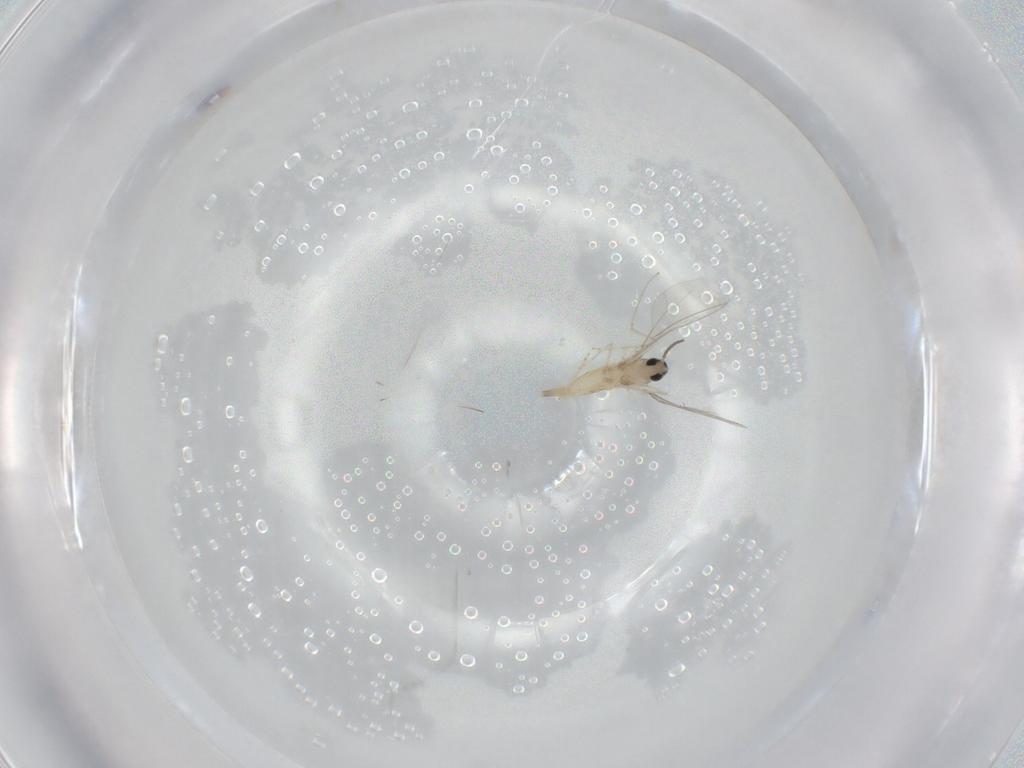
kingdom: Animalia
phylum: Arthropoda
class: Insecta
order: Diptera
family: Cecidomyiidae
